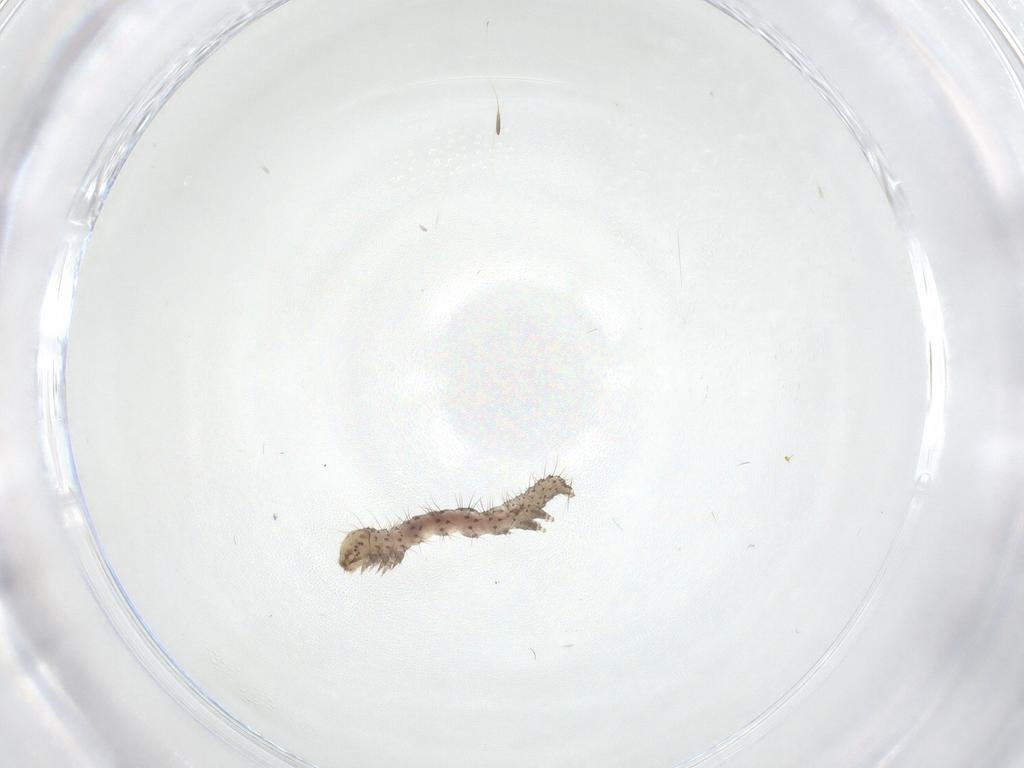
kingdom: Animalia
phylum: Arthropoda
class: Insecta
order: Lepidoptera
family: Erebidae
